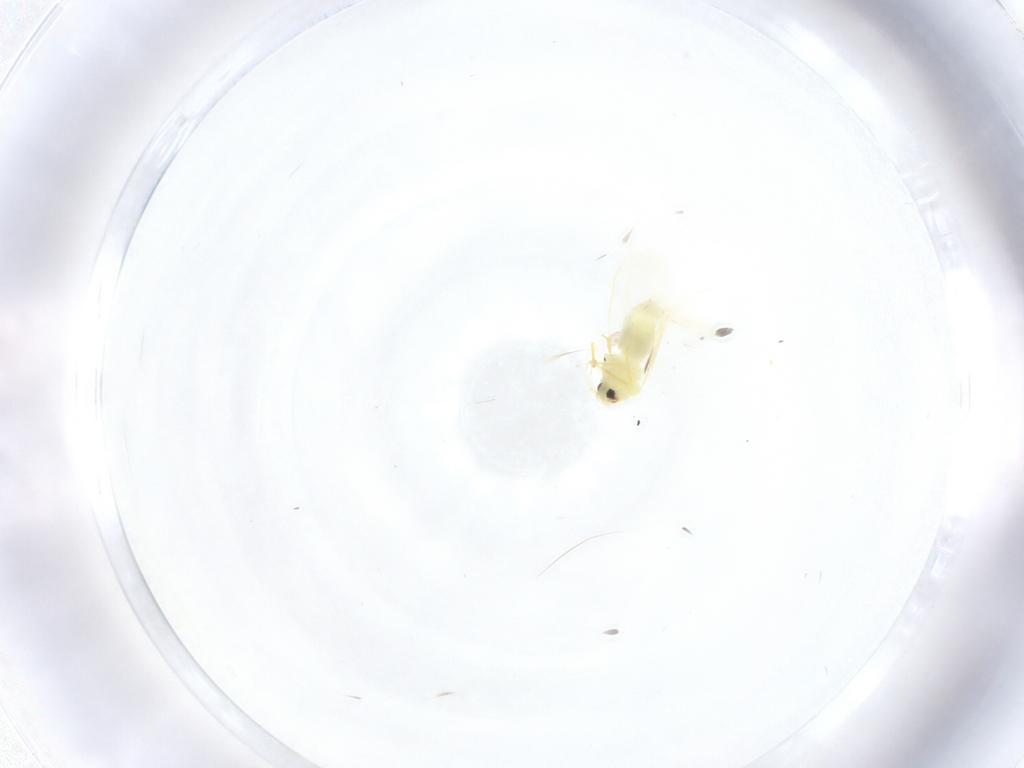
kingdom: Animalia
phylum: Arthropoda
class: Insecta
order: Hemiptera
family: Aleyrodidae
